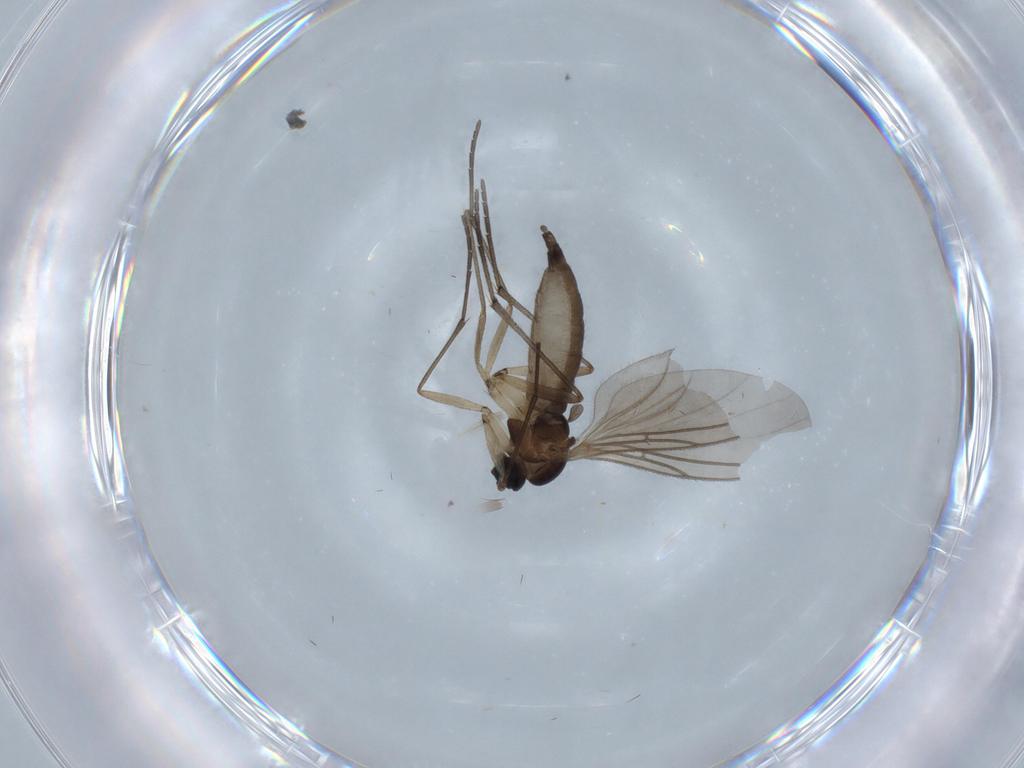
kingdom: Animalia
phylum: Arthropoda
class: Insecta
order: Diptera
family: Sciaridae
